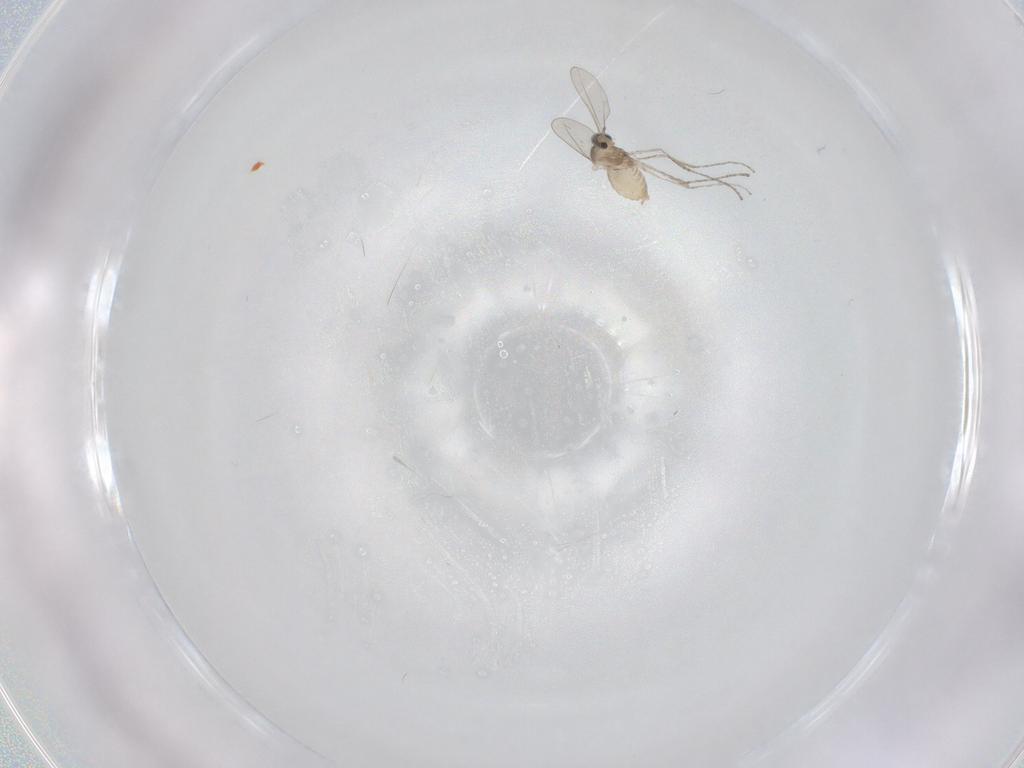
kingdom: Animalia
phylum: Arthropoda
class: Insecta
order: Diptera
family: Cecidomyiidae
